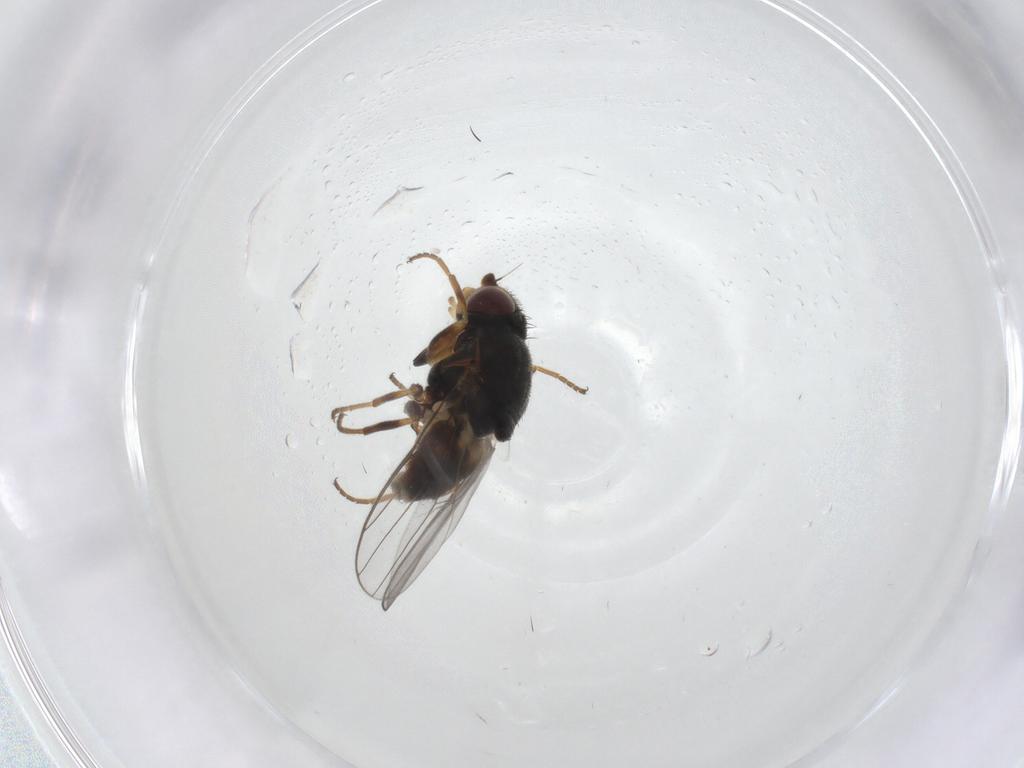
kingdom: Animalia
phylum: Arthropoda
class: Insecta
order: Diptera
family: Chloropidae
